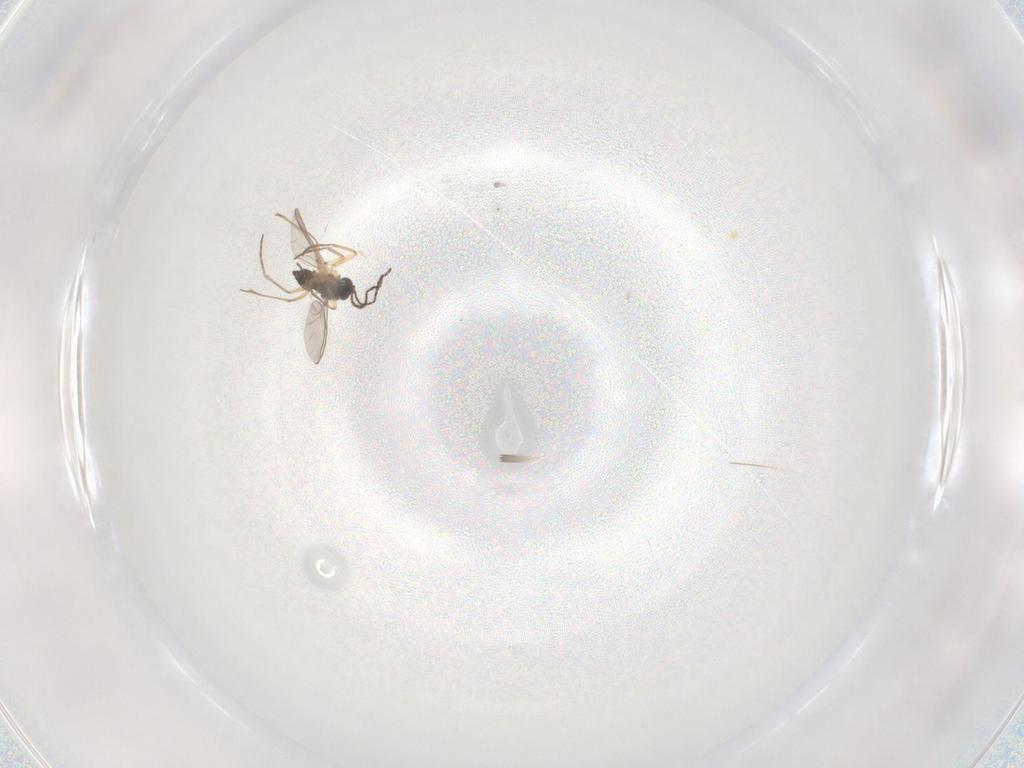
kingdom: Animalia
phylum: Arthropoda
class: Insecta
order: Diptera
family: Sciaridae
